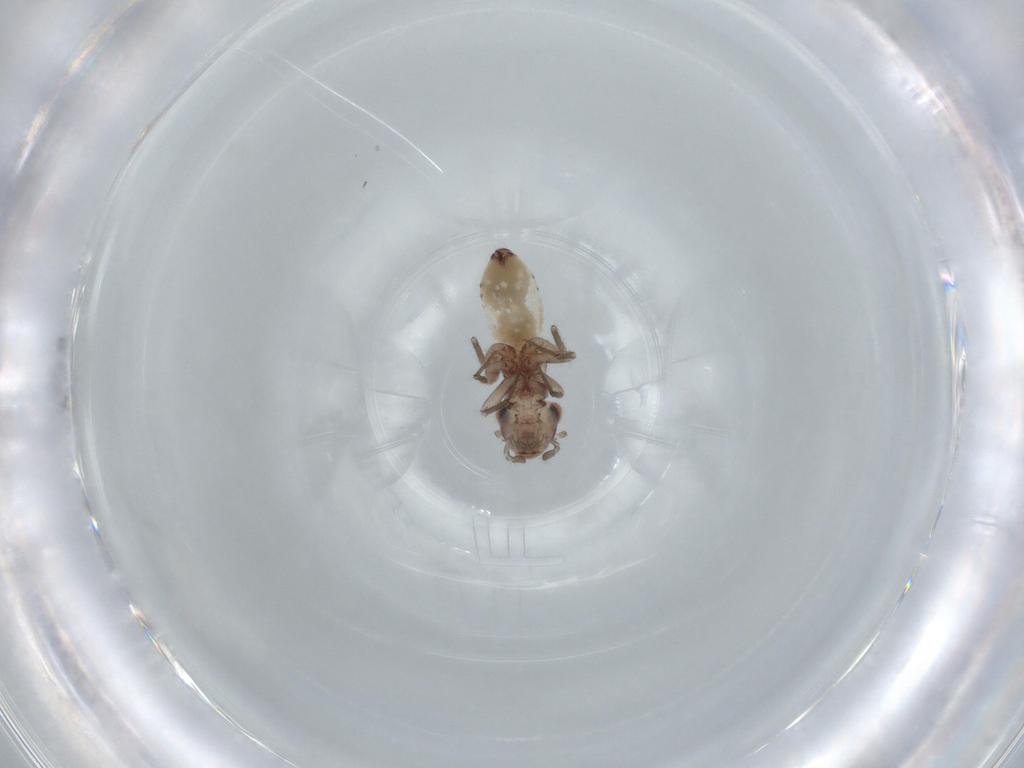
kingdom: Animalia
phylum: Arthropoda
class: Insecta
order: Psocodea
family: Lepidopsocidae
